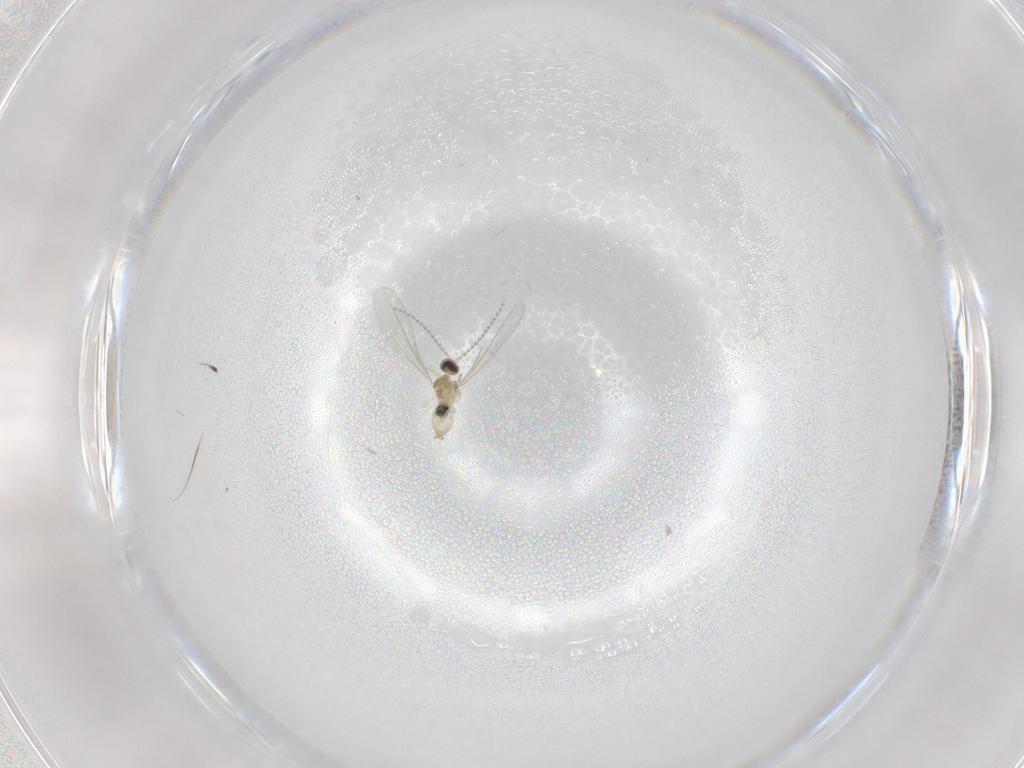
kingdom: Animalia
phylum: Arthropoda
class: Insecta
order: Diptera
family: Cecidomyiidae
